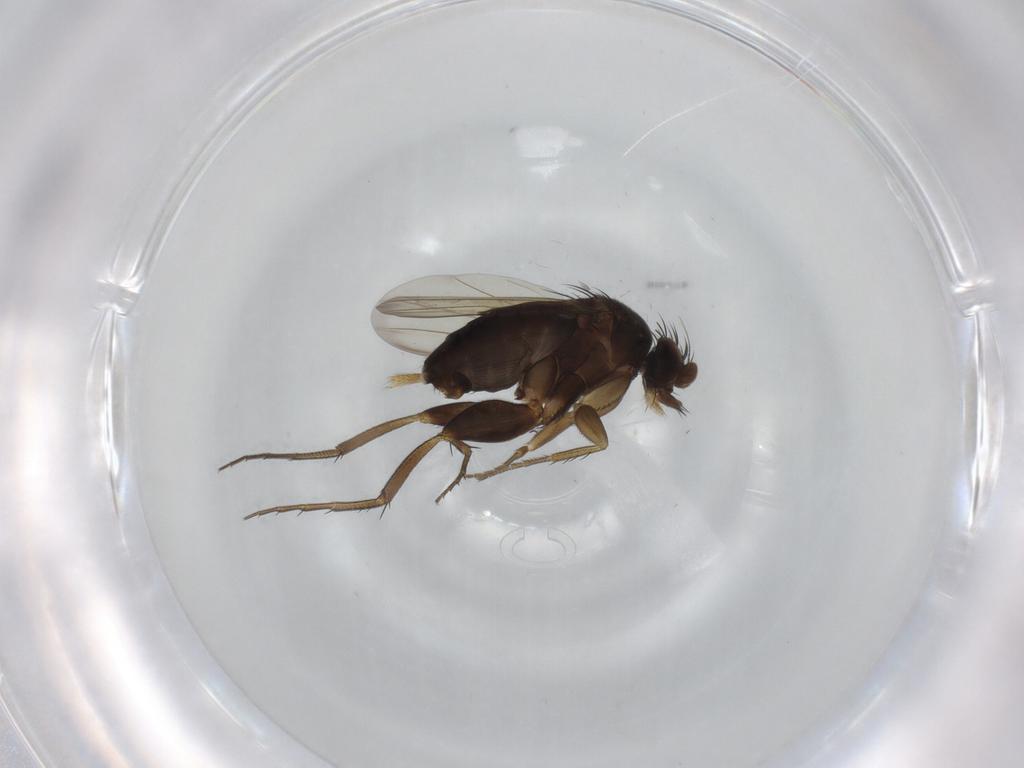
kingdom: Animalia
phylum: Arthropoda
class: Insecta
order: Diptera
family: Phoridae
